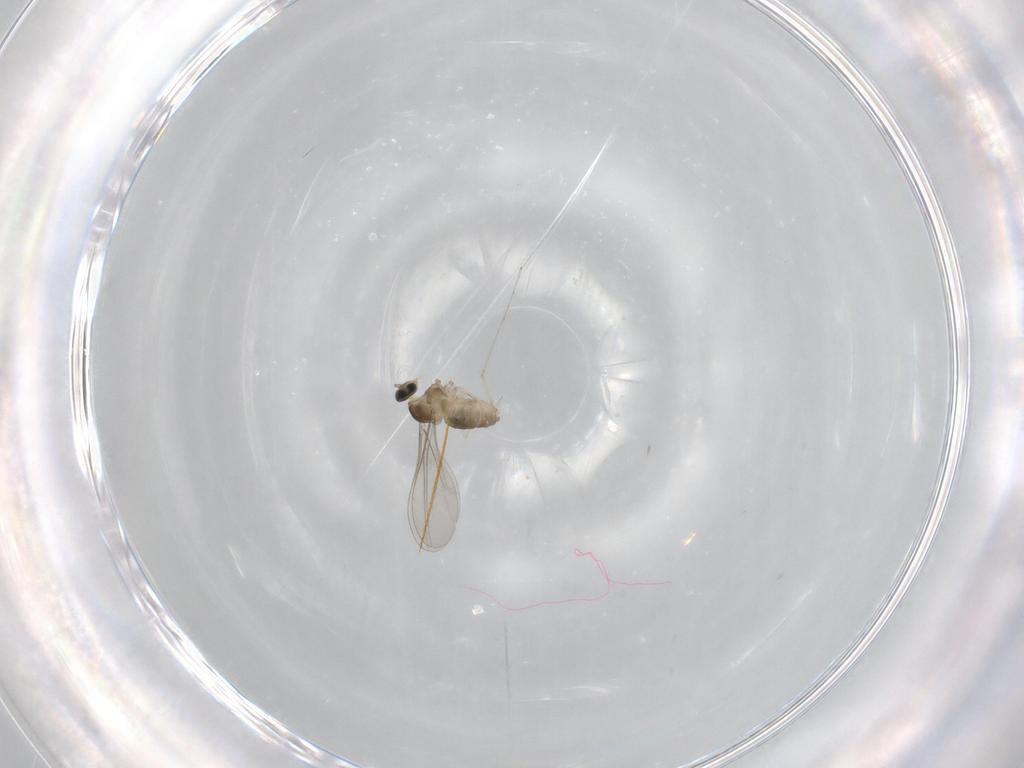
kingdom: Animalia
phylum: Arthropoda
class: Insecta
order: Diptera
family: Cecidomyiidae
